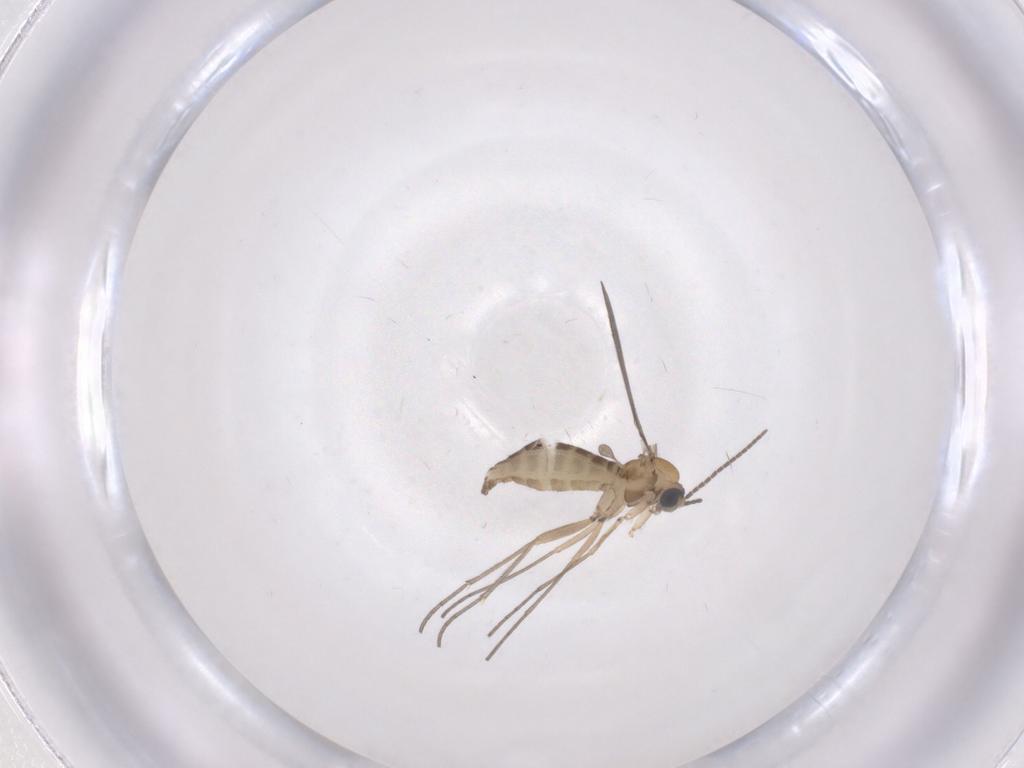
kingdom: Animalia
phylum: Arthropoda
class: Insecta
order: Diptera
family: Sciaridae
